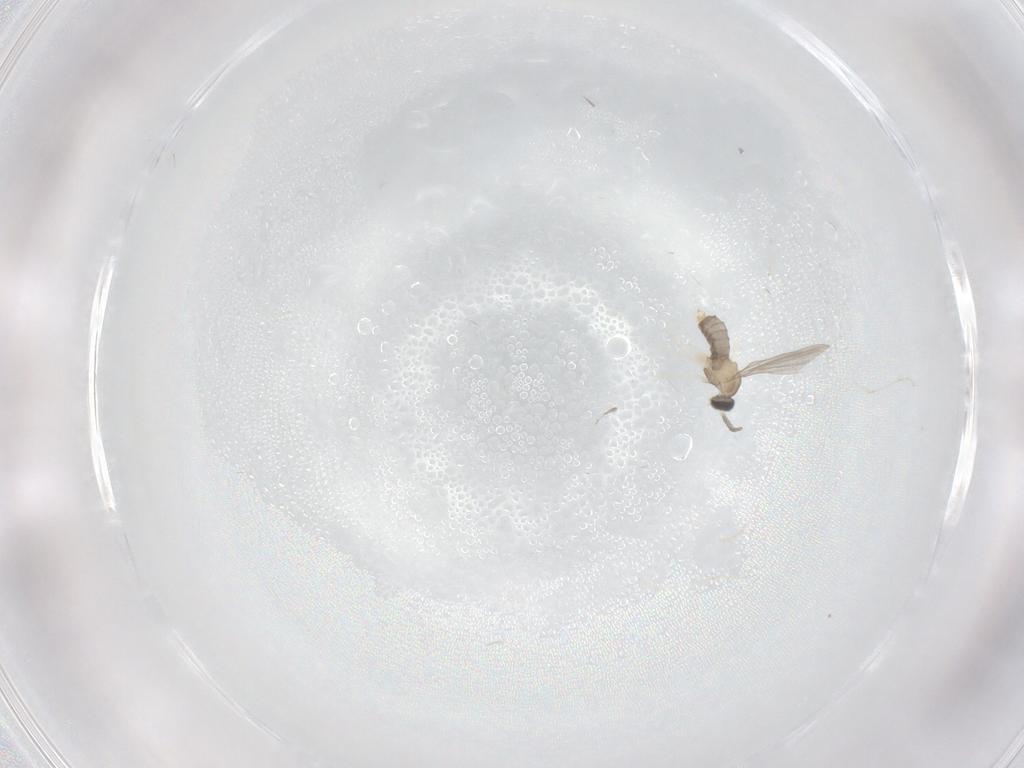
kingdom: Animalia
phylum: Arthropoda
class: Insecta
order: Diptera
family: Cecidomyiidae
